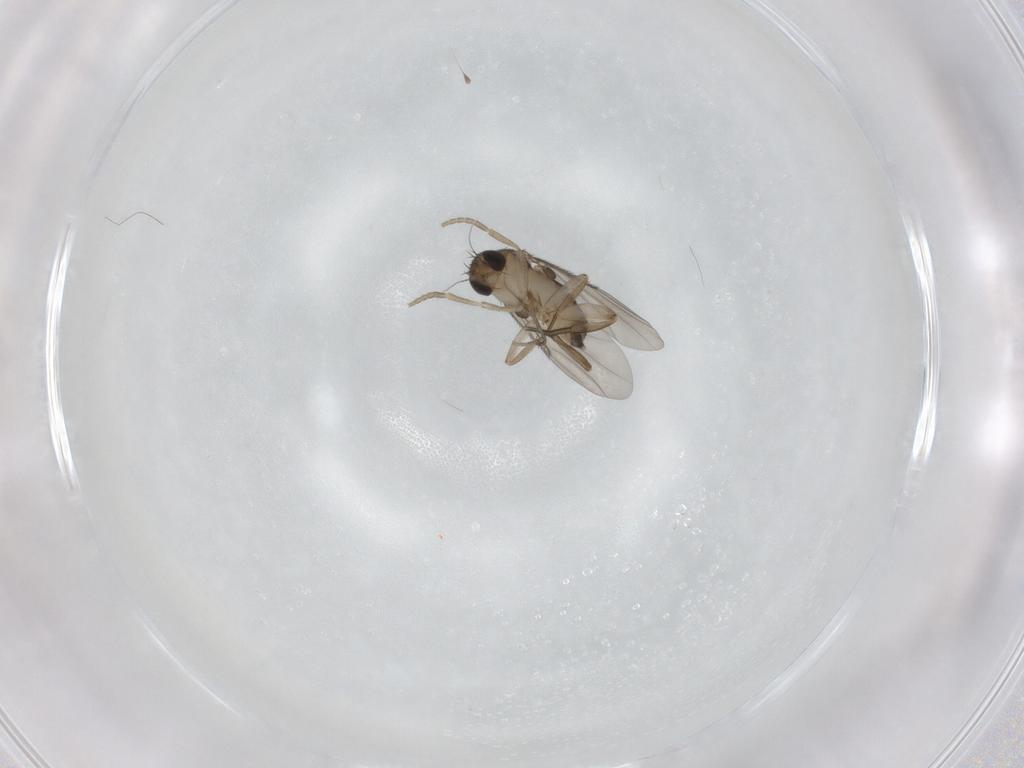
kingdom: Animalia
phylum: Arthropoda
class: Insecta
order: Diptera
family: Phoridae
